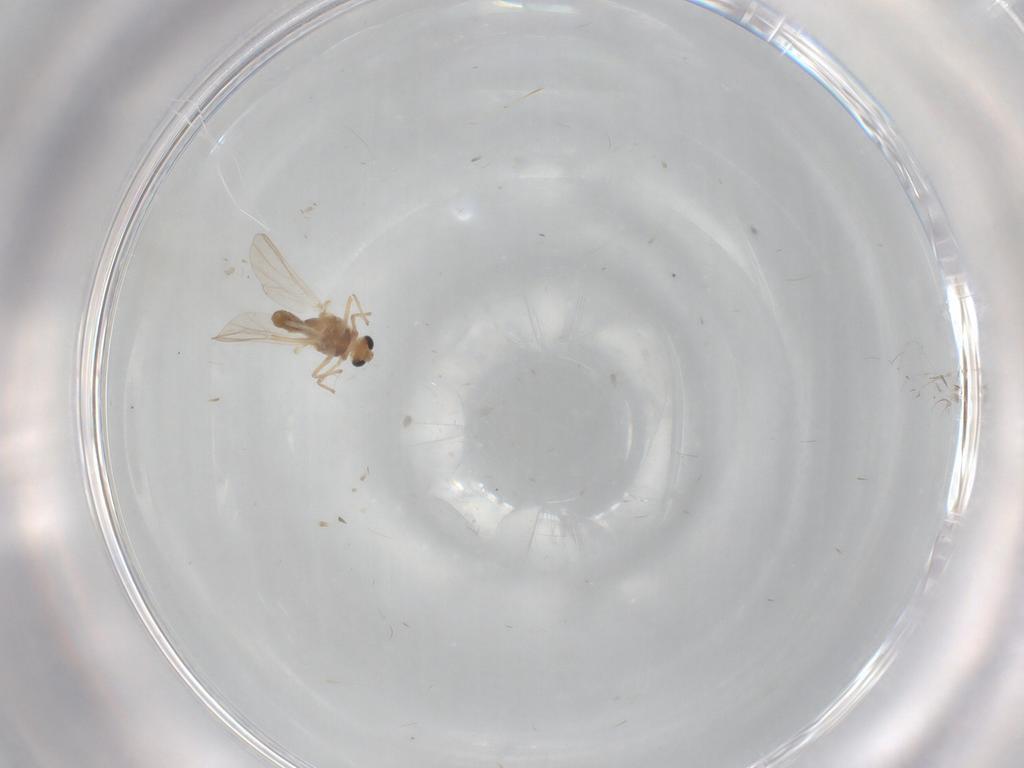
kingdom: Animalia
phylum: Arthropoda
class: Insecta
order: Diptera
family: Chironomidae
